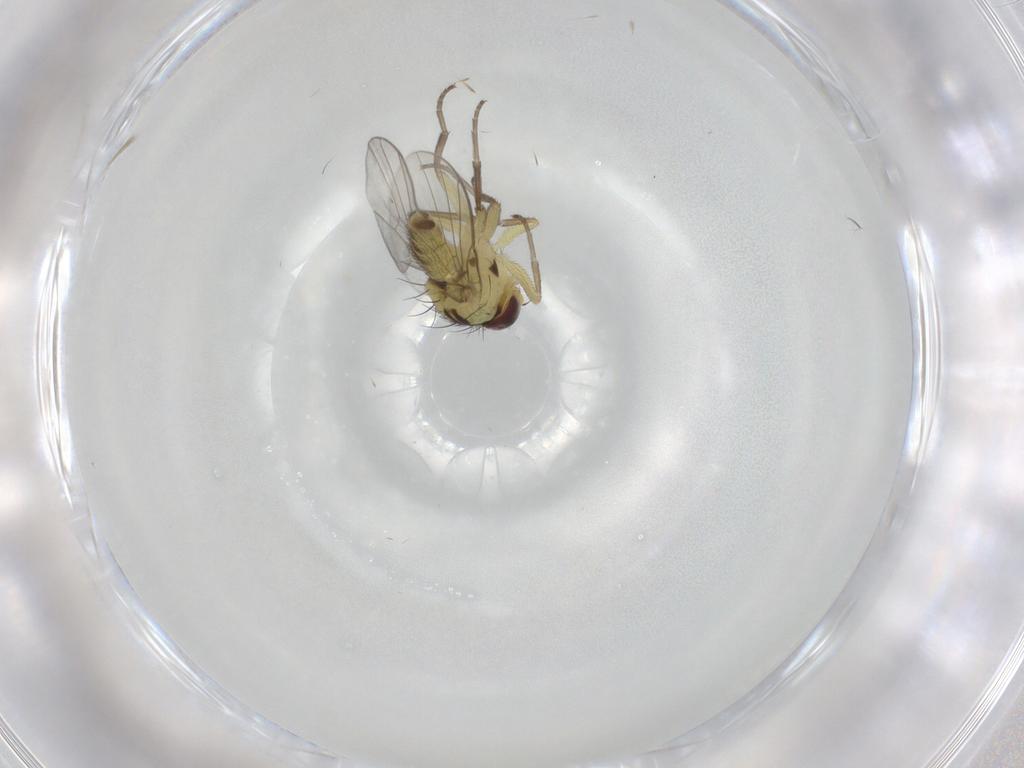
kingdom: Animalia
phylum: Arthropoda
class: Insecta
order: Diptera
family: Agromyzidae
